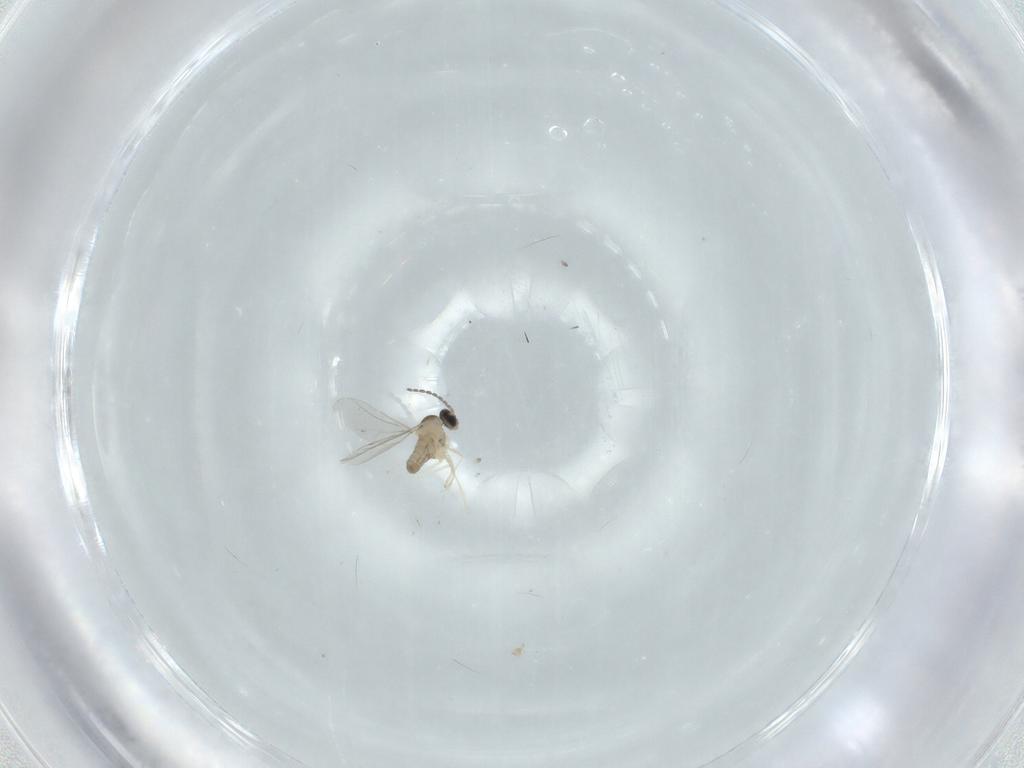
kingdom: Animalia
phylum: Arthropoda
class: Insecta
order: Diptera
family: Cecidomyiidae
